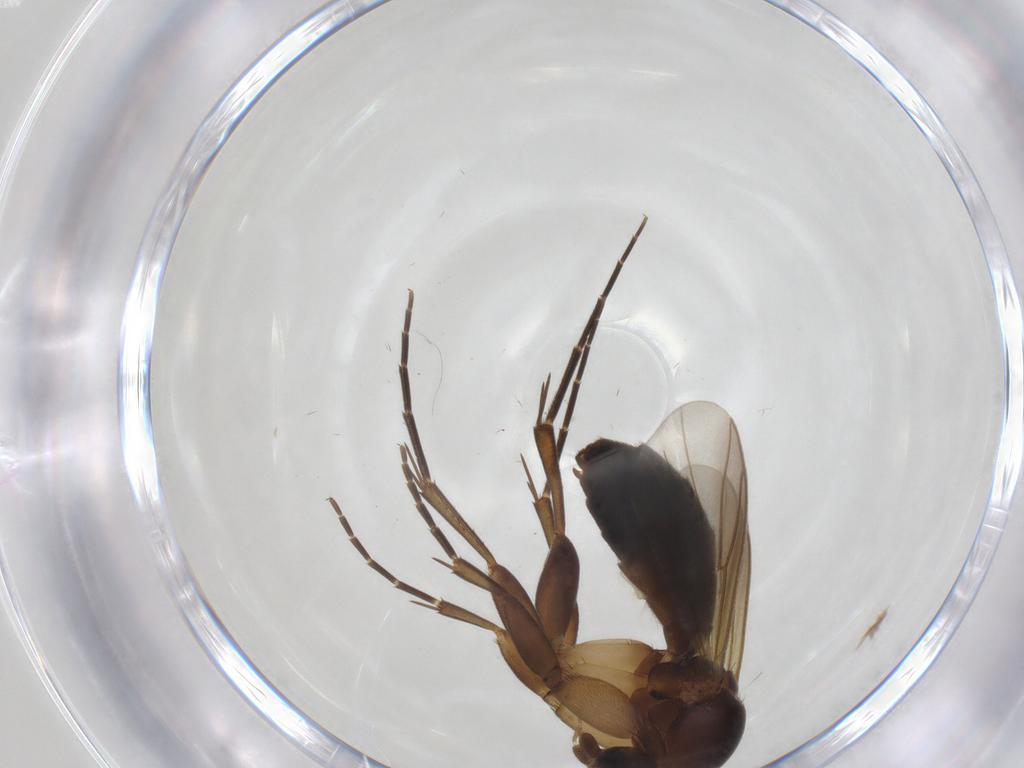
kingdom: Animalia
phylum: Arthropoda
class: Insecta
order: Diptera
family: Mycetophilidae
